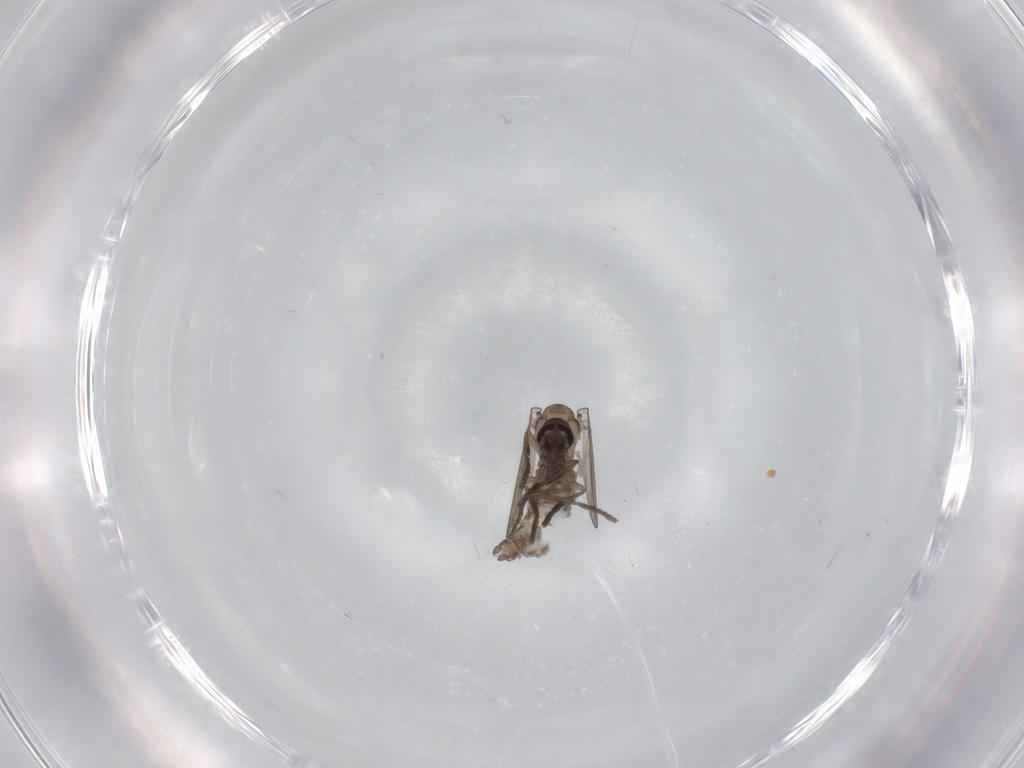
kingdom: Animalia
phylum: Arthropoda
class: Insecta
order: Diptera
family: Psychodidae
